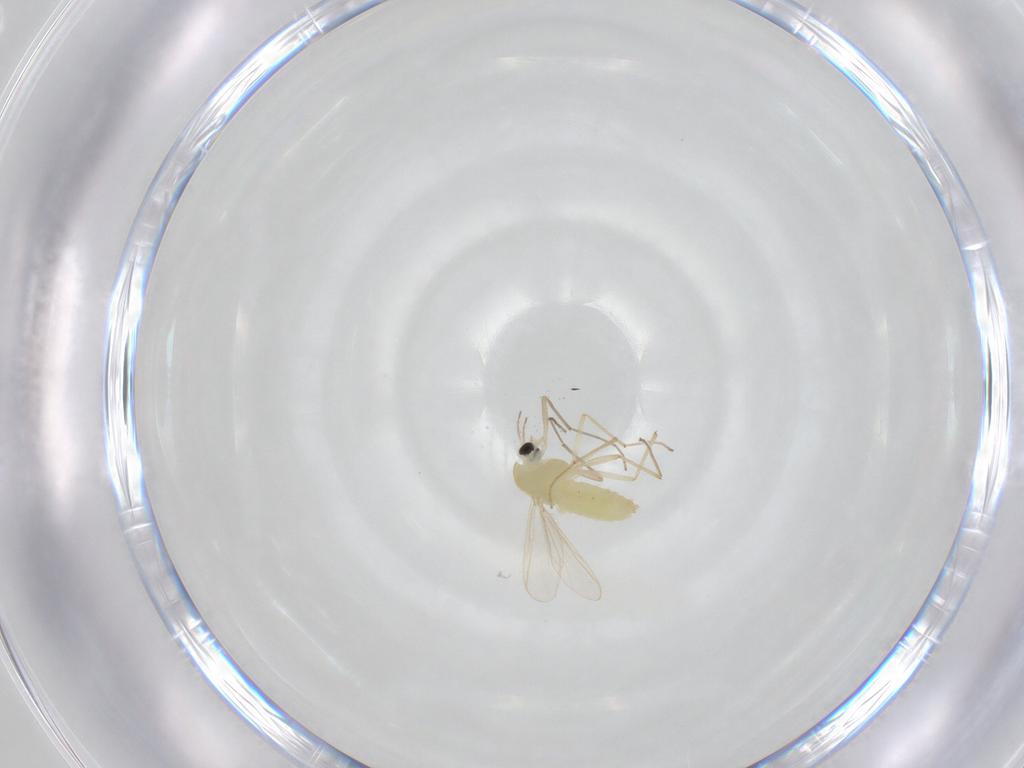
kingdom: Animalia
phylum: Arthropoda
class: Insecta
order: Diptera
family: Chironomidae
